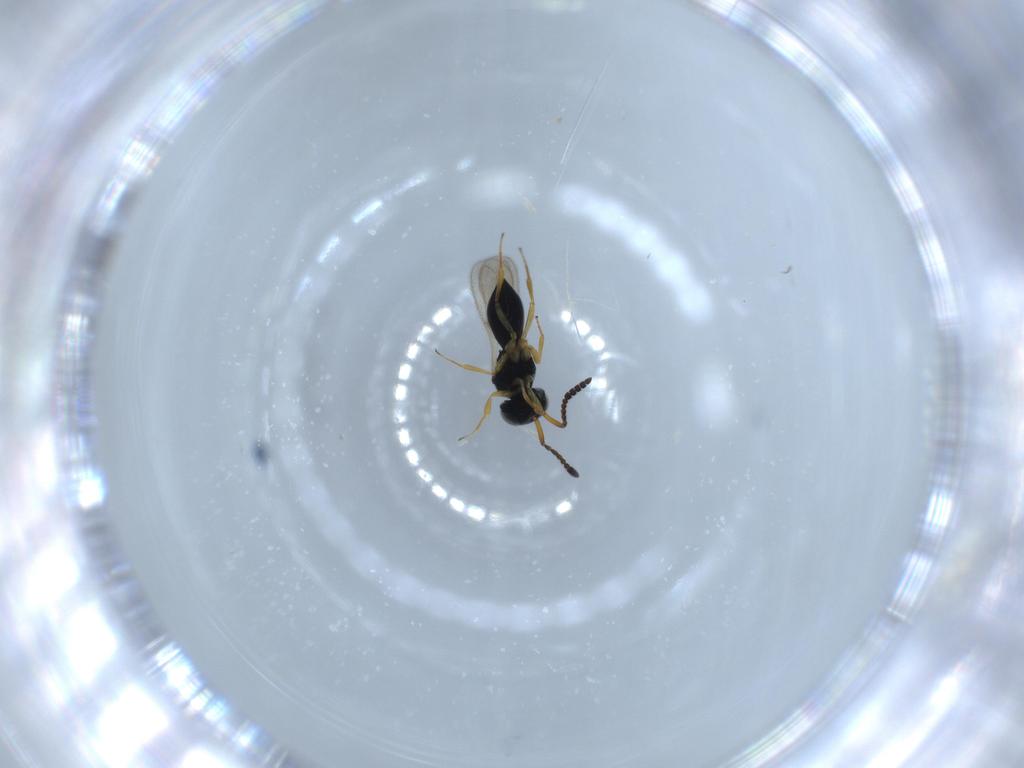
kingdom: Animalia
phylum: Arthropoda
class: Insecta
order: Hymenoptera
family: Scelionidae
